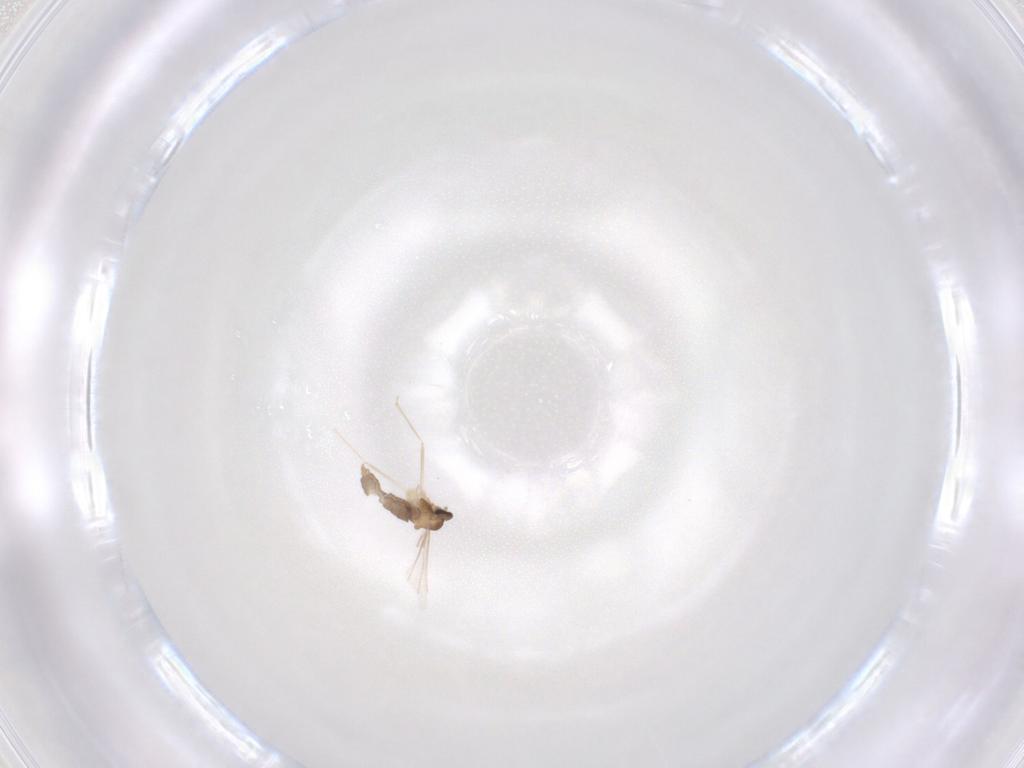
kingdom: Animalia
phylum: Arthropoda
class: Insecta
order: Diptera
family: Cecidomyiidae
